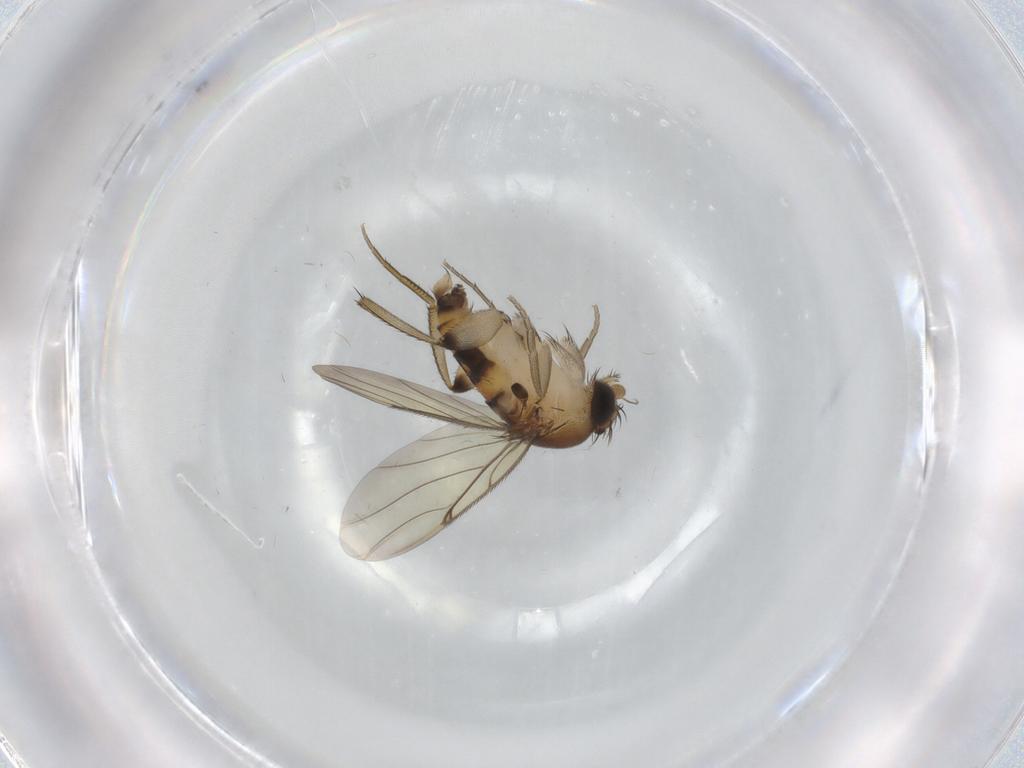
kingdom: Animalia
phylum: Arthropoda
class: Insecta
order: Diptera
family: Phoridae
